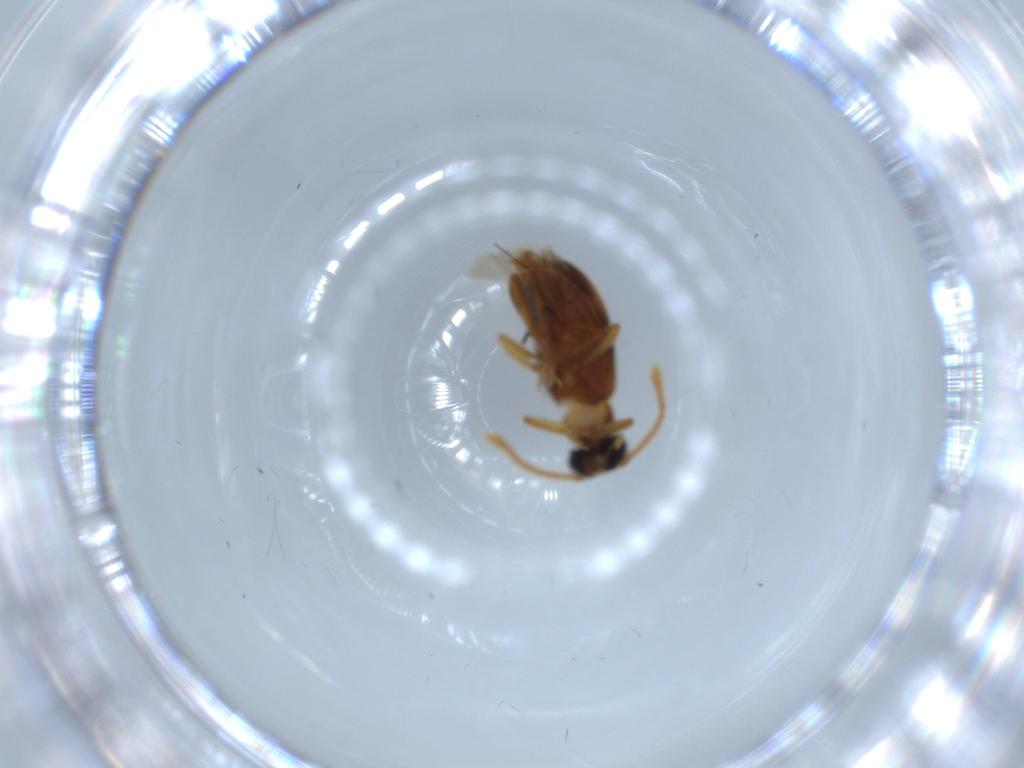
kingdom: Animalia
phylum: Arthropoda
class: Insecta
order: Coleoptera
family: Aderidae
